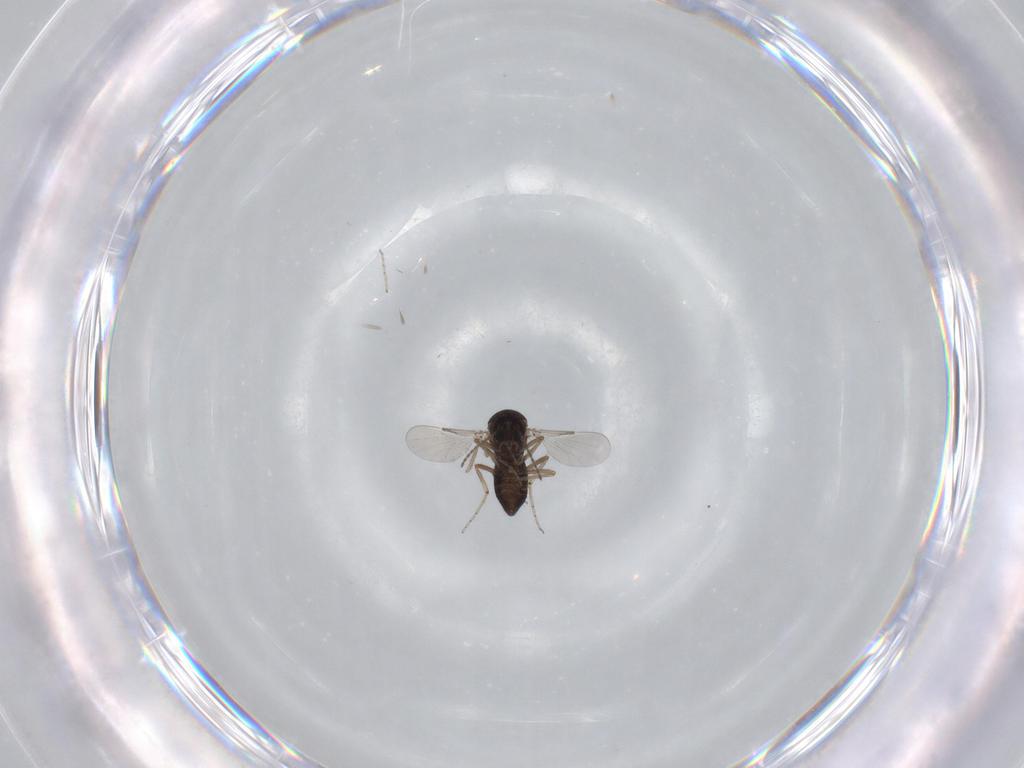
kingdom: Animalia
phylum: Arthropoda
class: Insecta
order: Diptera
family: Ceratopogonidae
